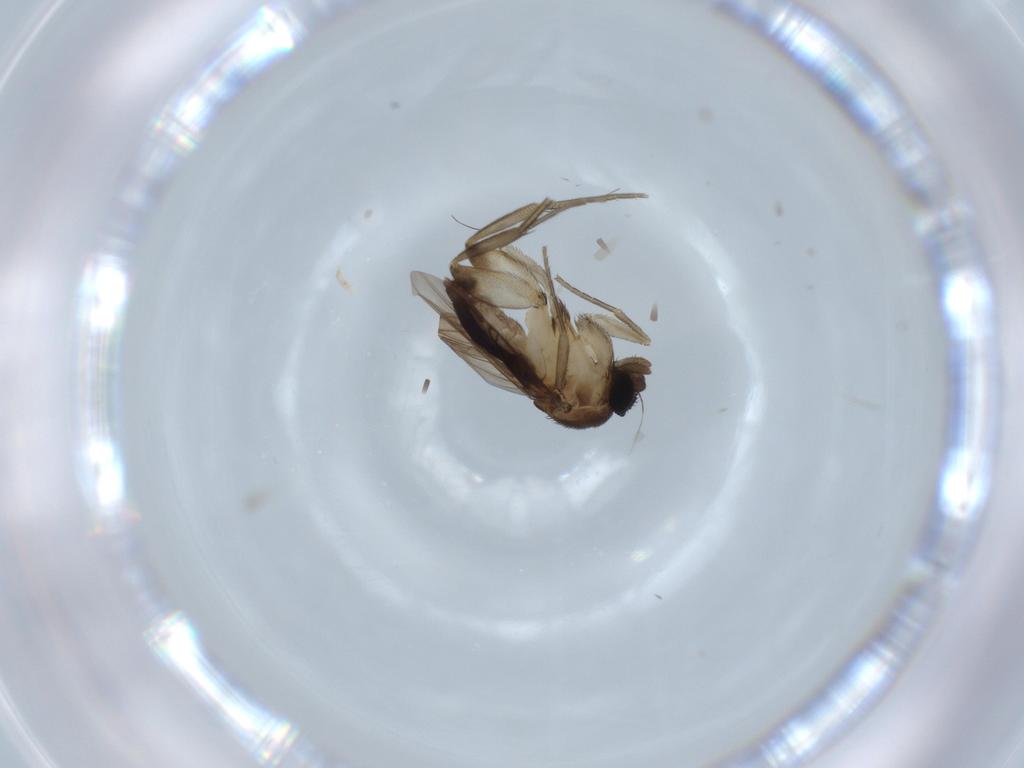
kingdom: Animalia
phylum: Arthropoda
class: Insecta
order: Diptera
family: Phoridae
